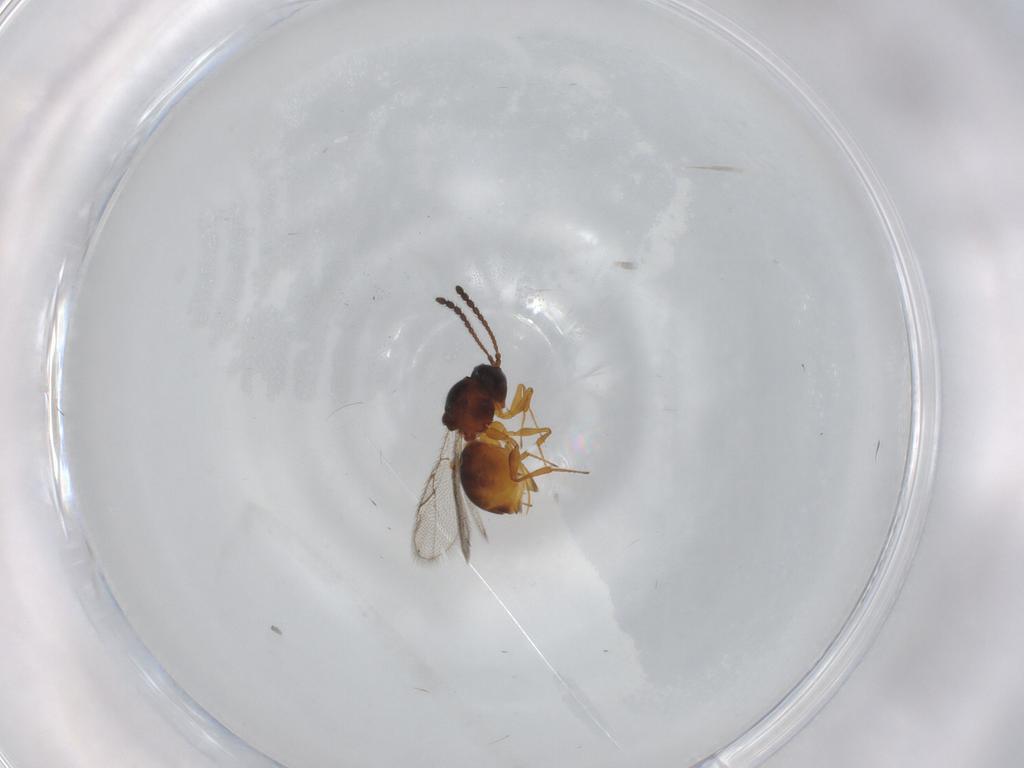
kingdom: Animalia
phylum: Arthropoda
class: Insecta
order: Hymenoptera
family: Figitidae
